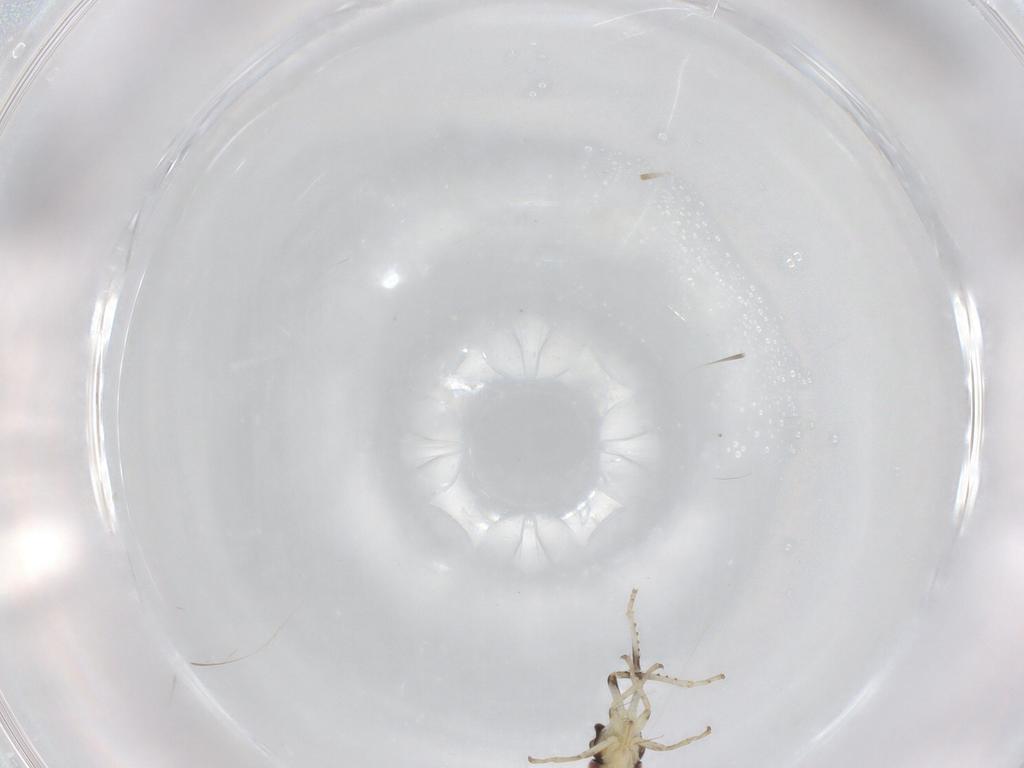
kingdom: Animalia
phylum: Arthropoda
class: Insecta
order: Hemiptera
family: Cicadellidae
